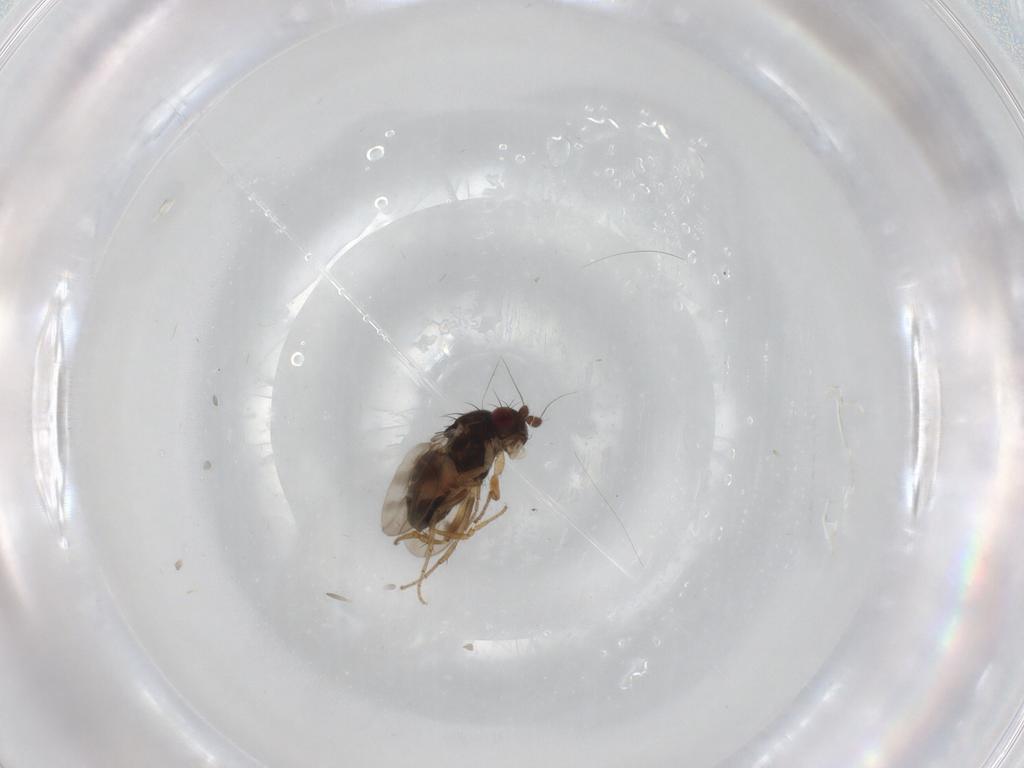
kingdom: Animalia
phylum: Arthropoda
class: Insecta
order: Diptera
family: Sphaeroceridae
